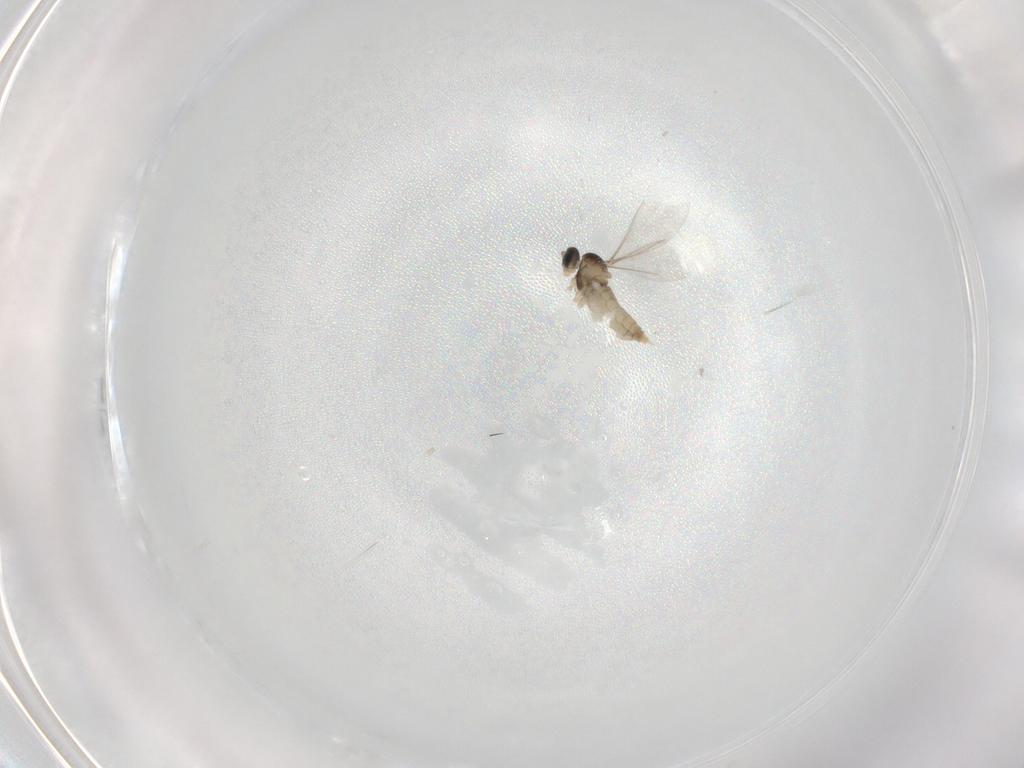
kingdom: Animalia
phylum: Arthropoda
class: Insecta
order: Diptera
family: Cecidomyiidae
